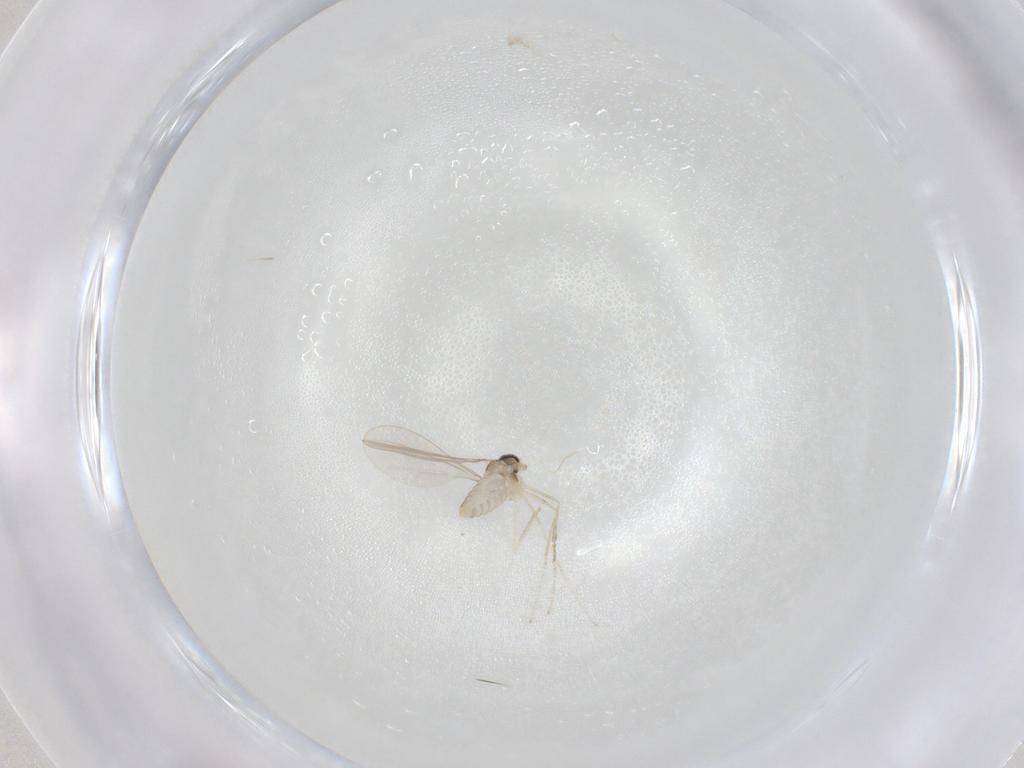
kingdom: Animalia
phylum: Arthropoda
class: Insecta
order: Diptera
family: Cecidomyiidae
